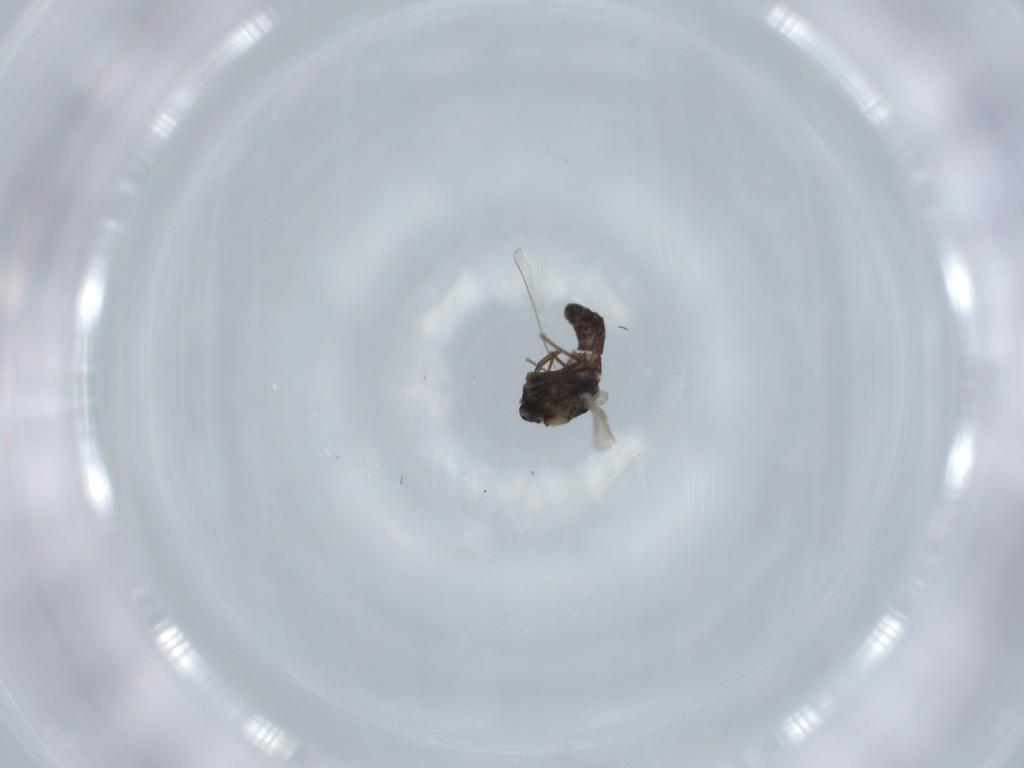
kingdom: Animalia
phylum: Arthropoda
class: Insecta
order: Diptera
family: Chironomidae
